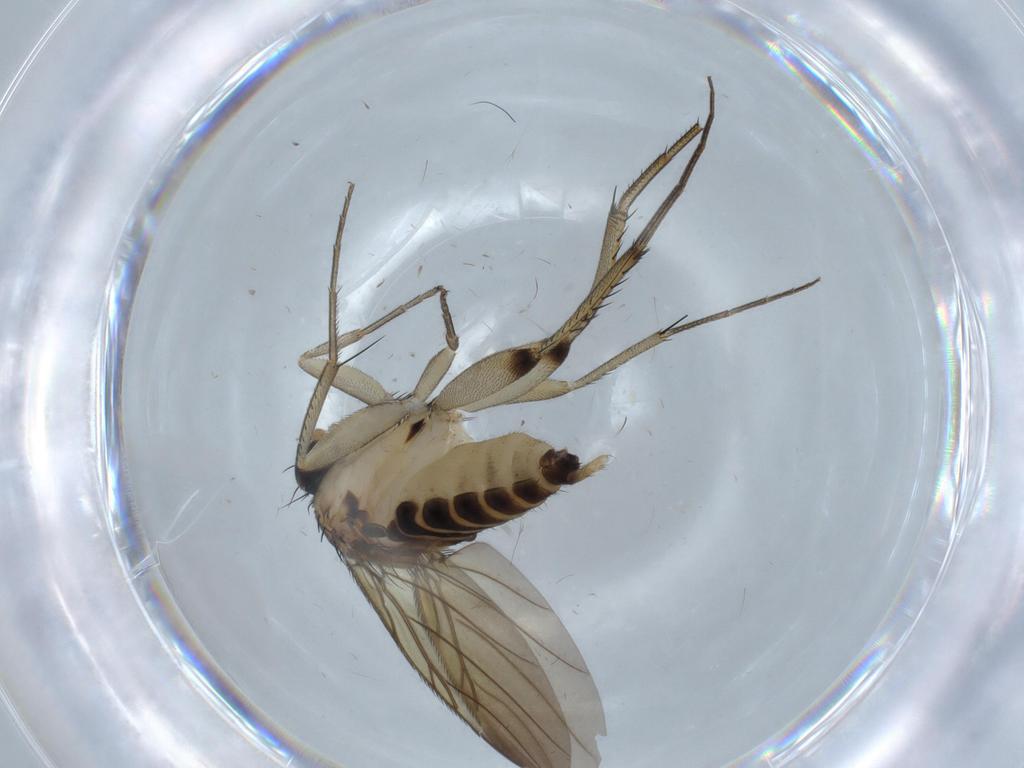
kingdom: Animalia
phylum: Arthropoda
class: Insecta
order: Diptera
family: Phoridae
